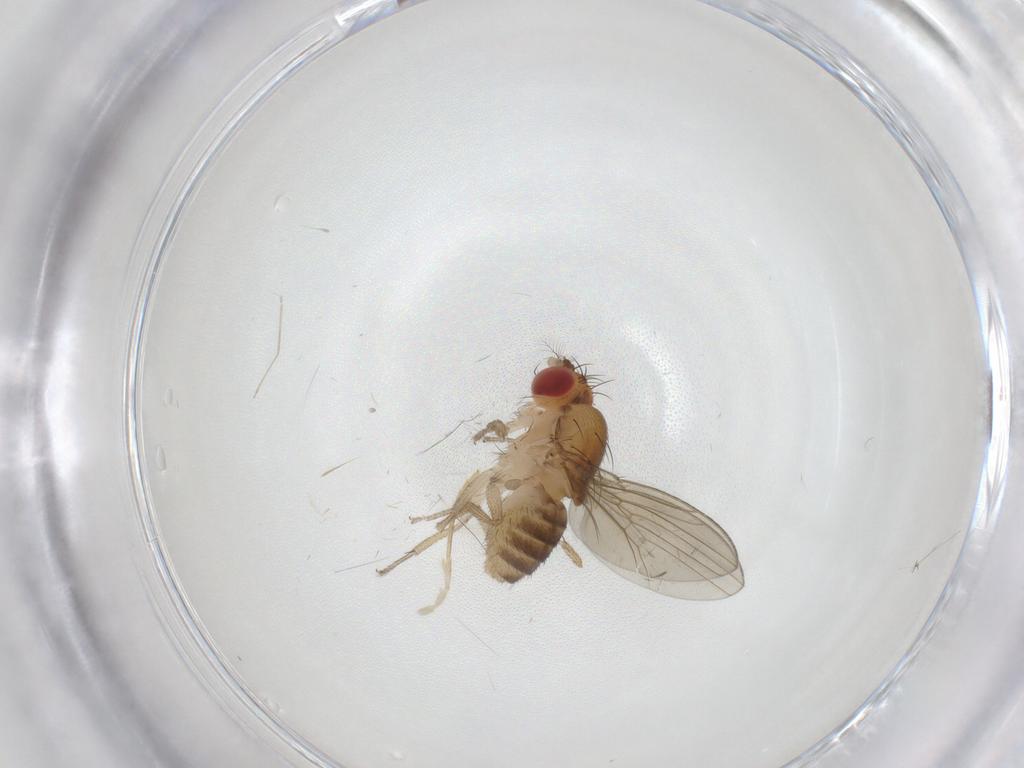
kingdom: Animalia
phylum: Arthropoda
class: Insecta
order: Diptera
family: Drosophilidae
